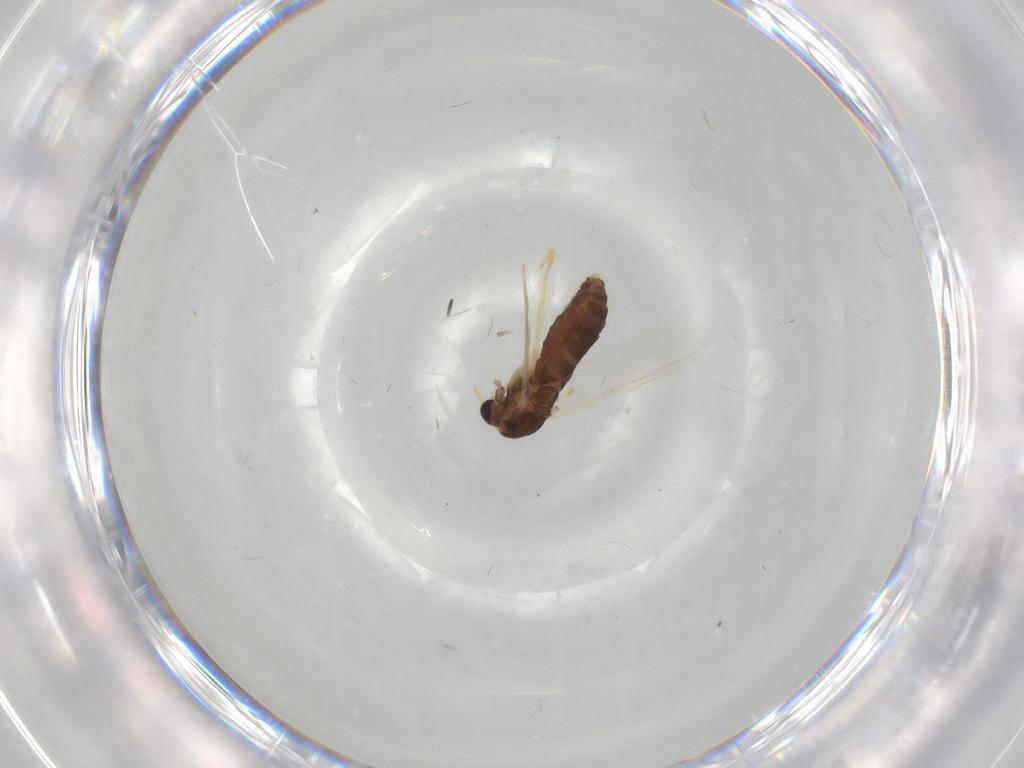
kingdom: Animalia
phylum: Arthropoda
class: Insecta
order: Diptera
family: Chironomidae
